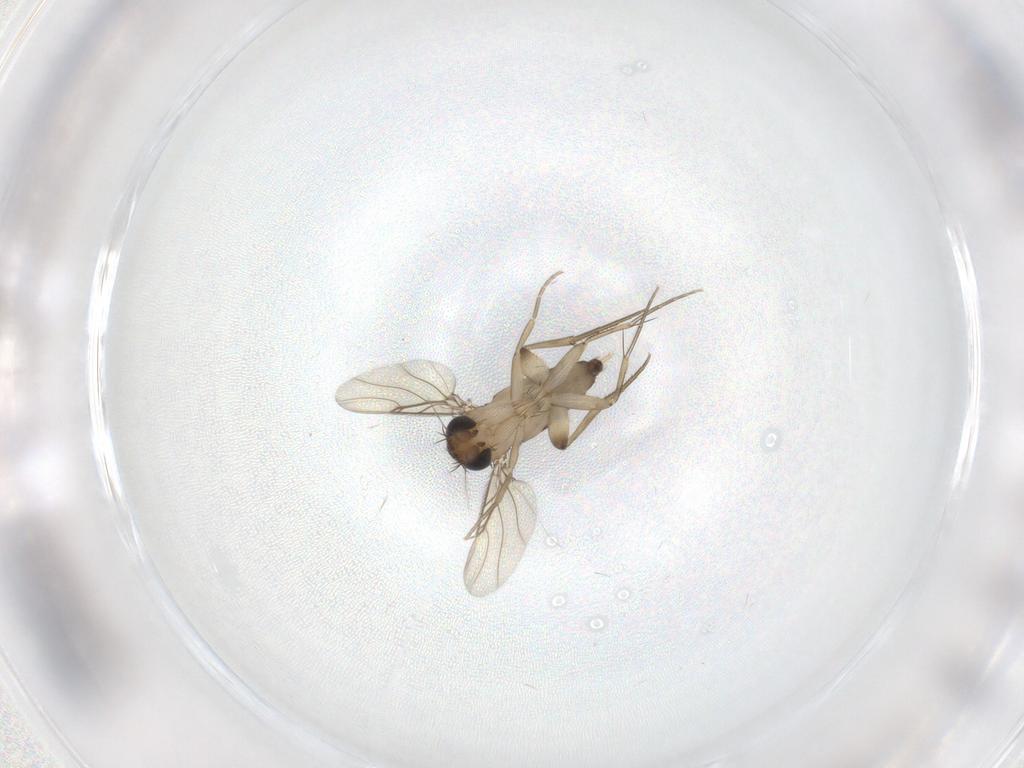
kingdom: Animalia
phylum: Arthropoda
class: Insecta
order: Diptera
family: Phoridae
